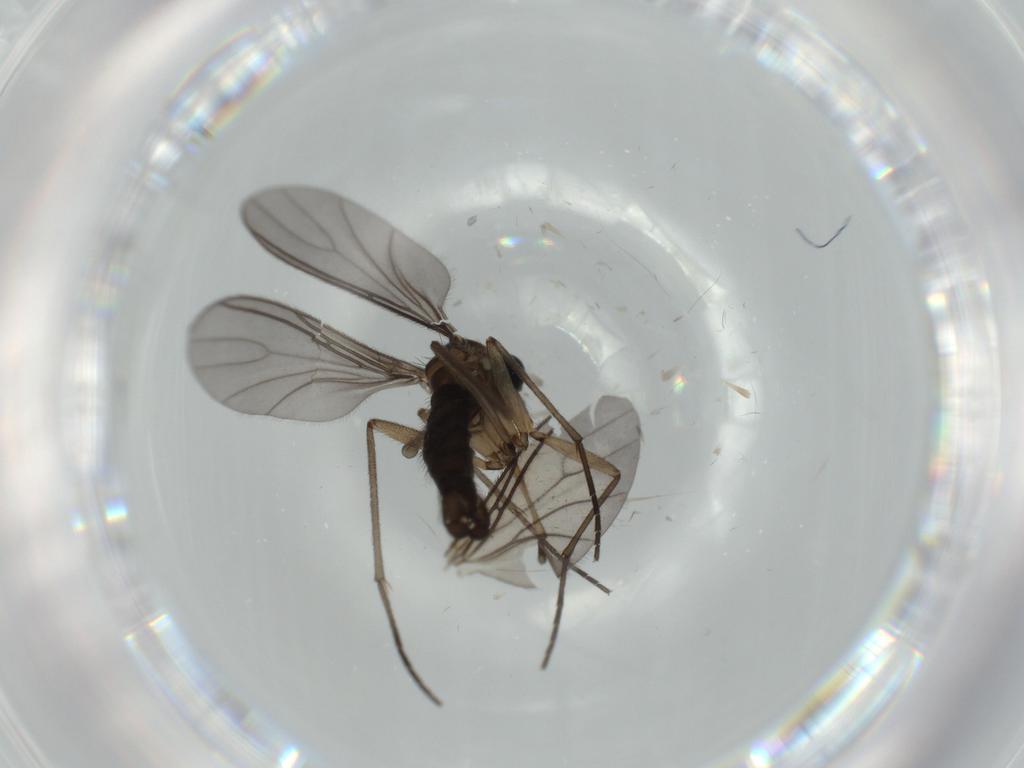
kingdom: Animalia
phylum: Arthropoda
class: Insecta
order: Diptera
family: Sciaridae
